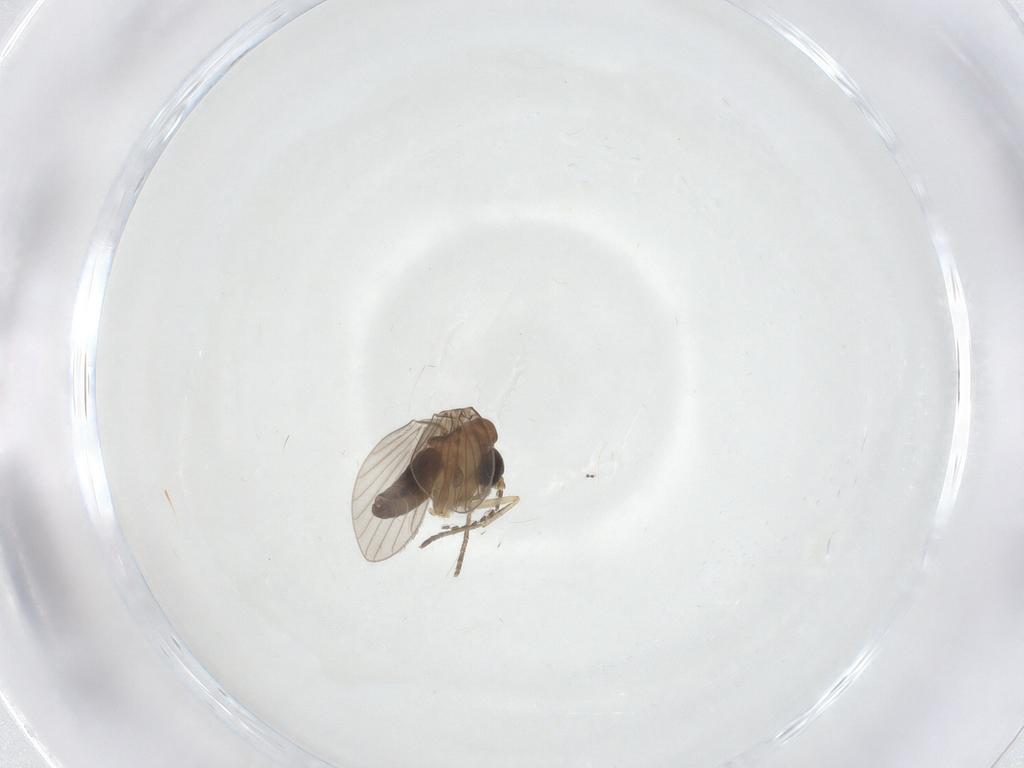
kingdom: Animalia
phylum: Arthropoda
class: Insecta
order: Diptera
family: Cecidomyiidae
